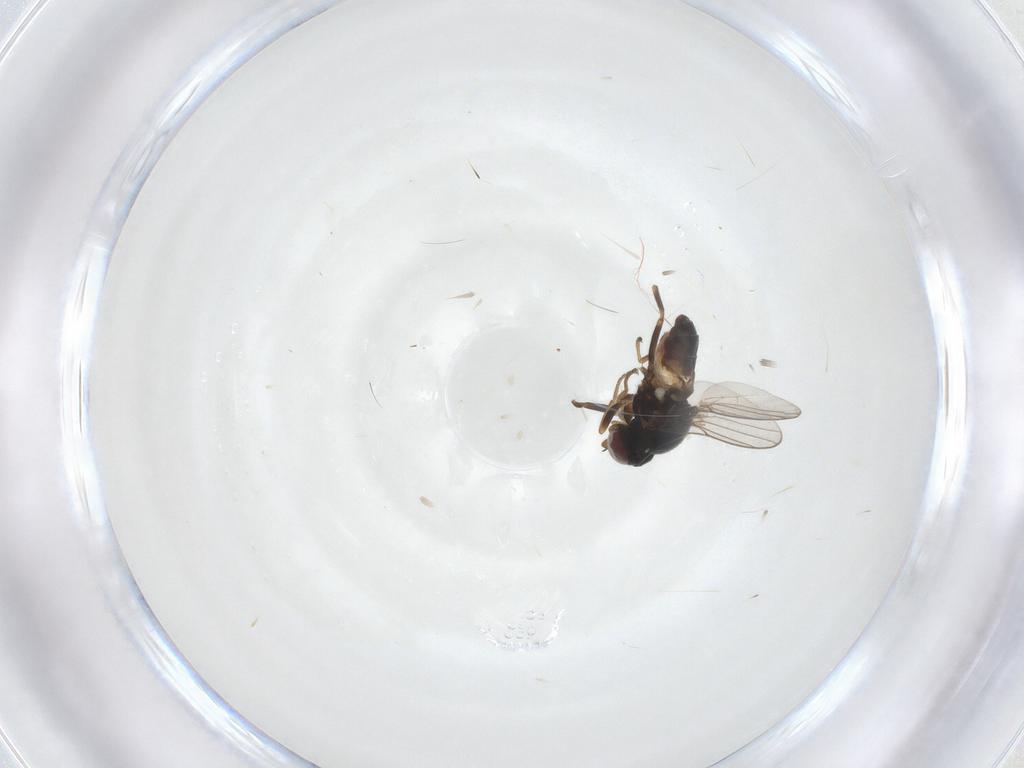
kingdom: Animalia
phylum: Arthropoda
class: Insecta
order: Diptera
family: Chloropidae
